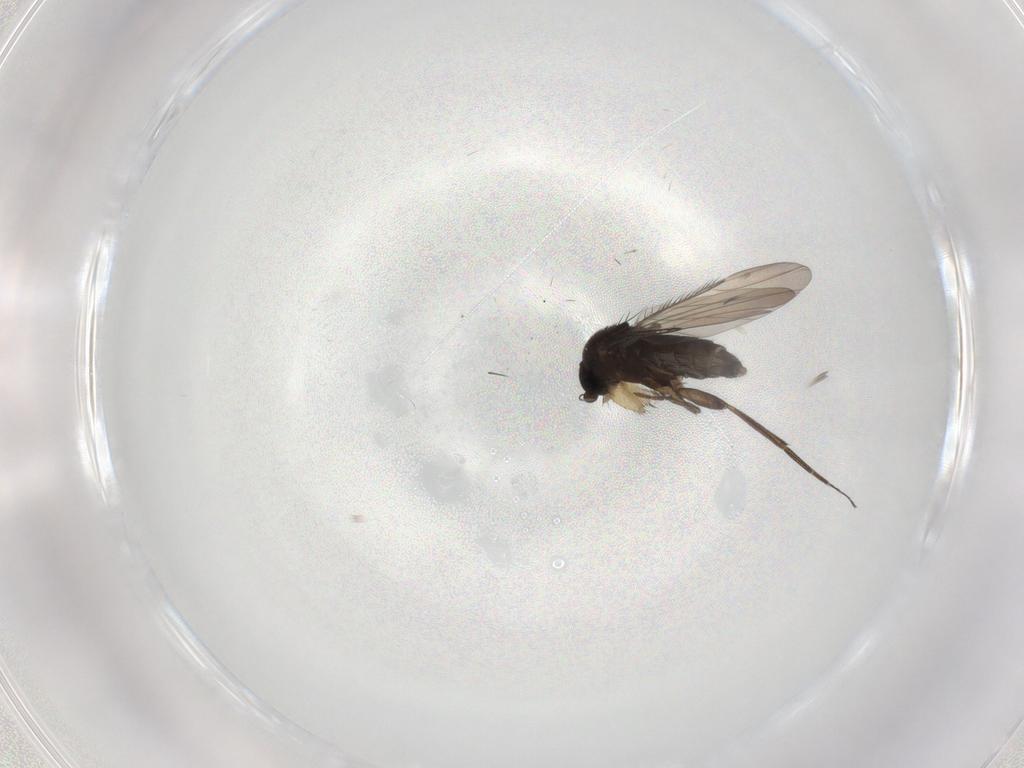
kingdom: Animalia
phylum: Arthropoda
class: Insecta
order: Diptera
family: Phoridae
